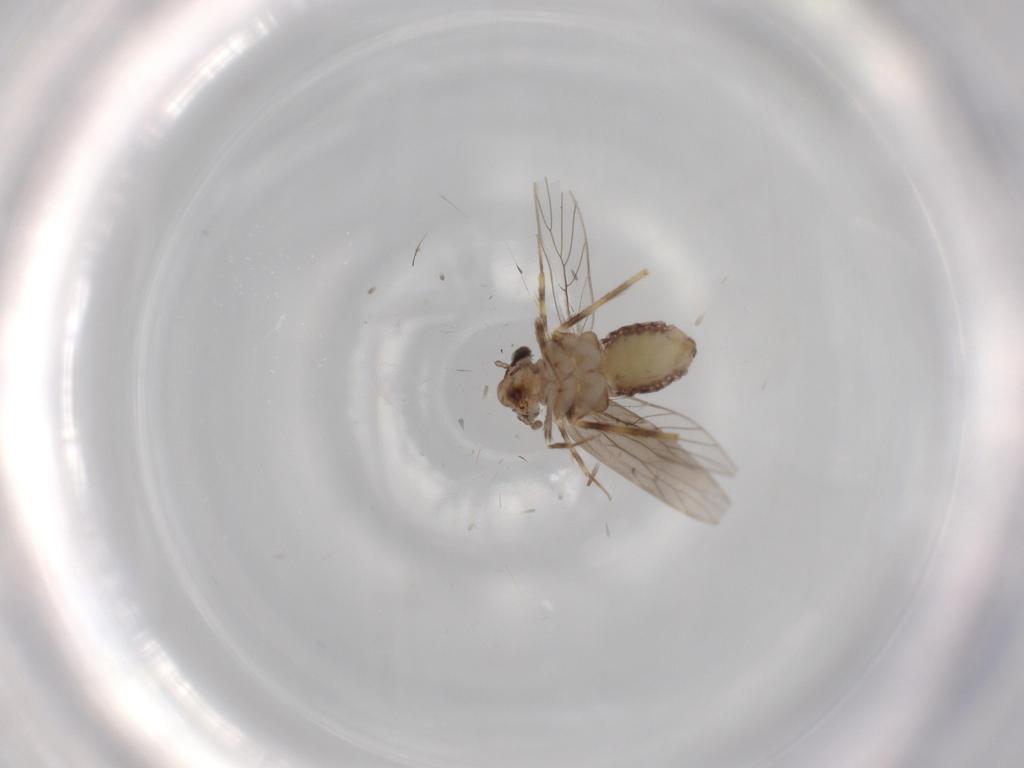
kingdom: Animalia
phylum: Arthropoda
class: Insecta
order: Psocodea
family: Lepidopsocidae
